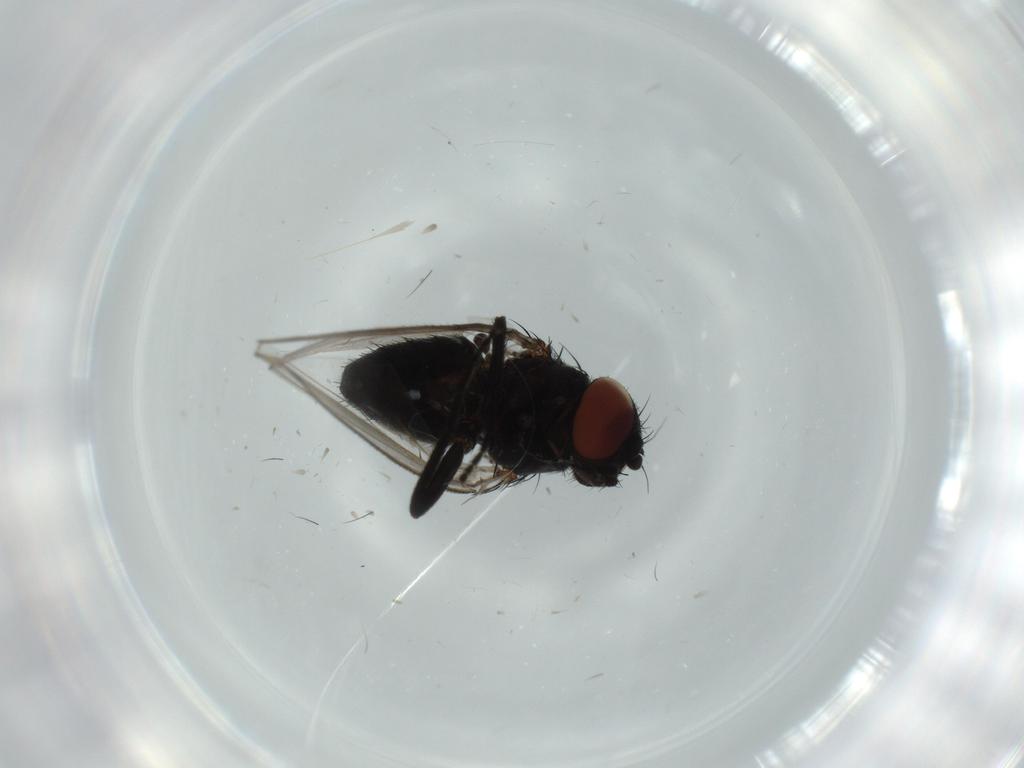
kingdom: Animalia
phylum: Arthropoda
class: Insecta
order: Diptera
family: Milichiidae
